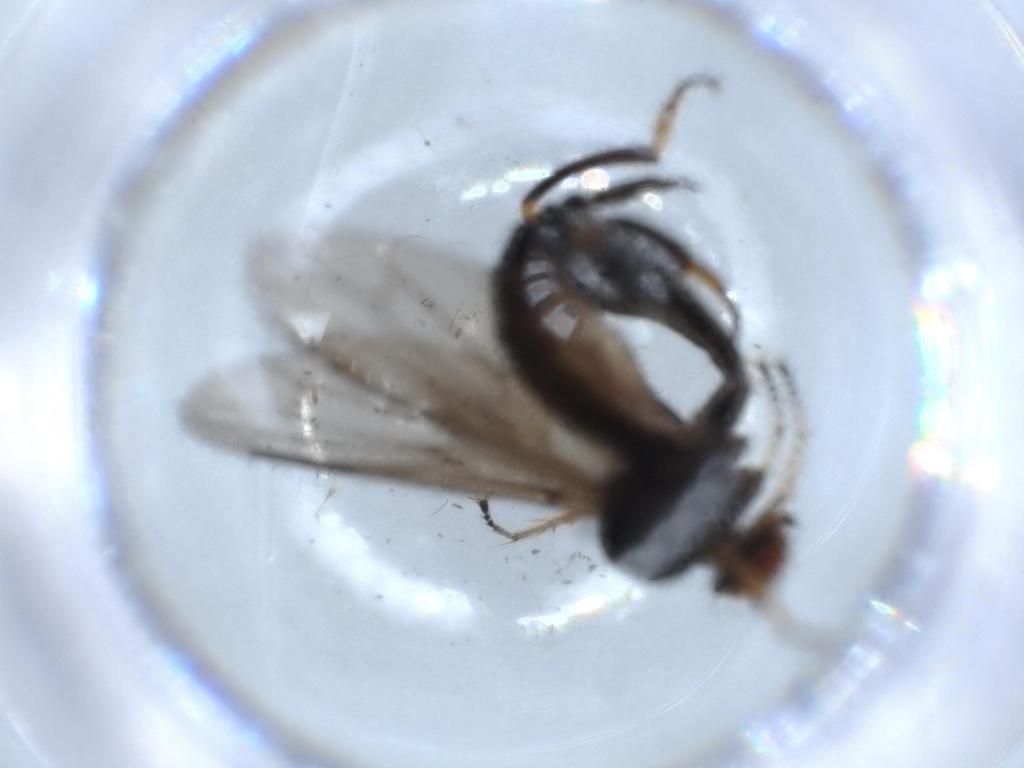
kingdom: Animalia
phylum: Arthropoda
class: Insecta
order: Diptera
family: Hybotidae
